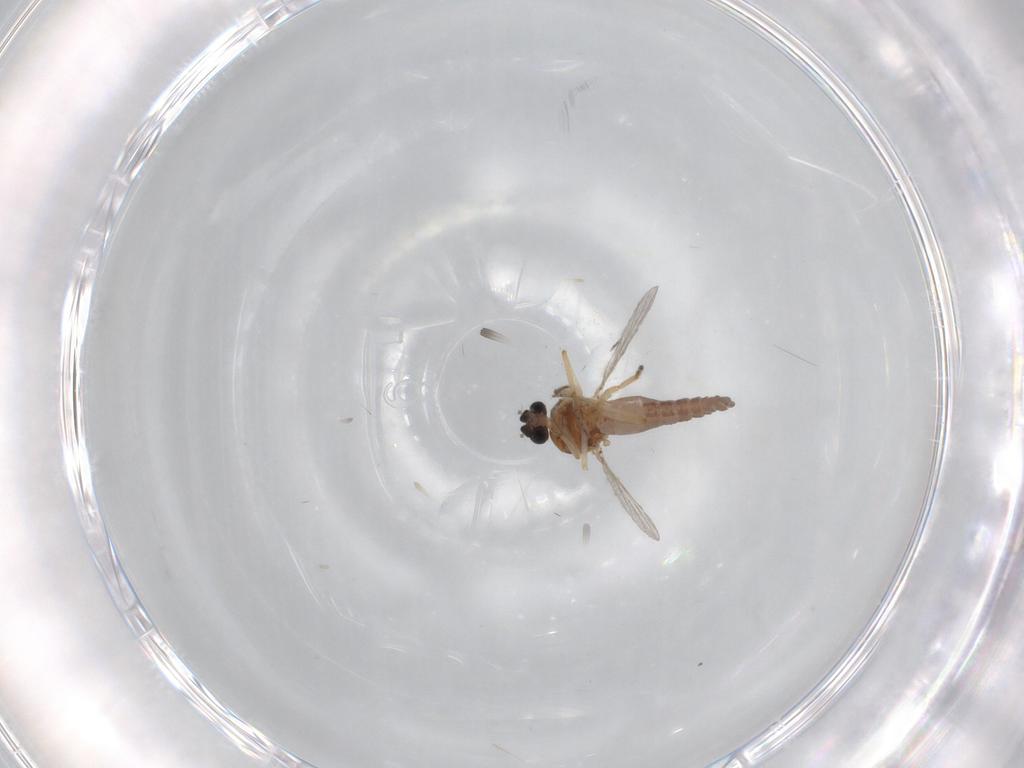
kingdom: Animalia
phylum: Arthropoda
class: Insecta
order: Diptera
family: Ceratopogonidae
